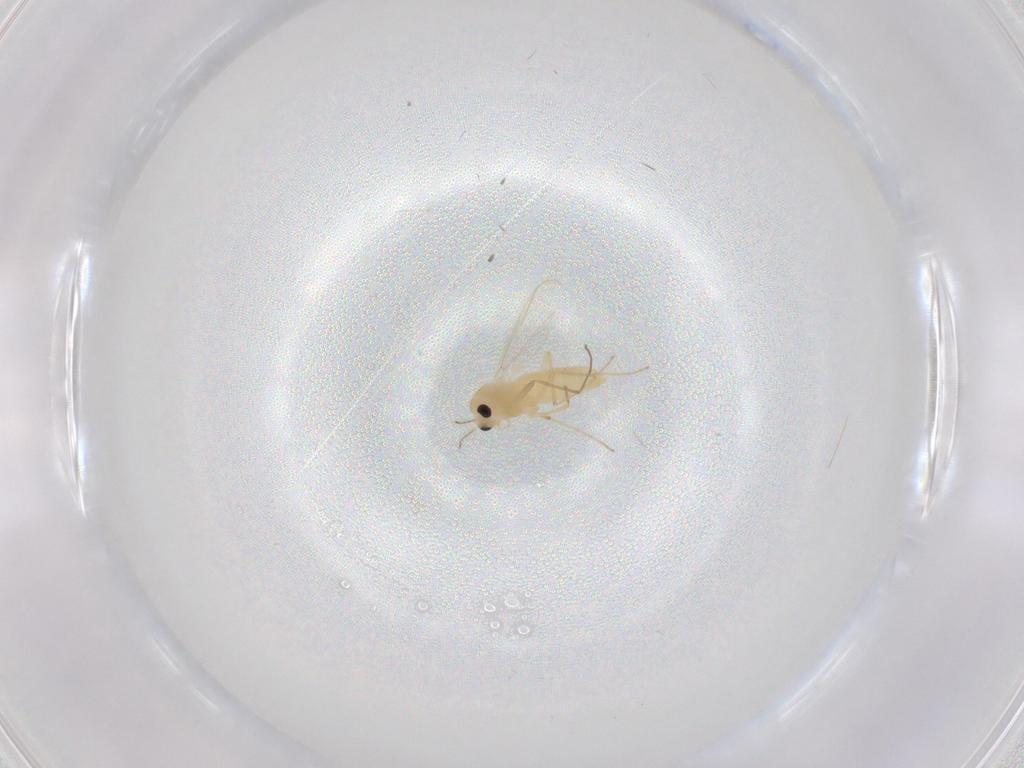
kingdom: Animalia
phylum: Arthropoda
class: Insecta
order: Diptera
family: Chironomidae
